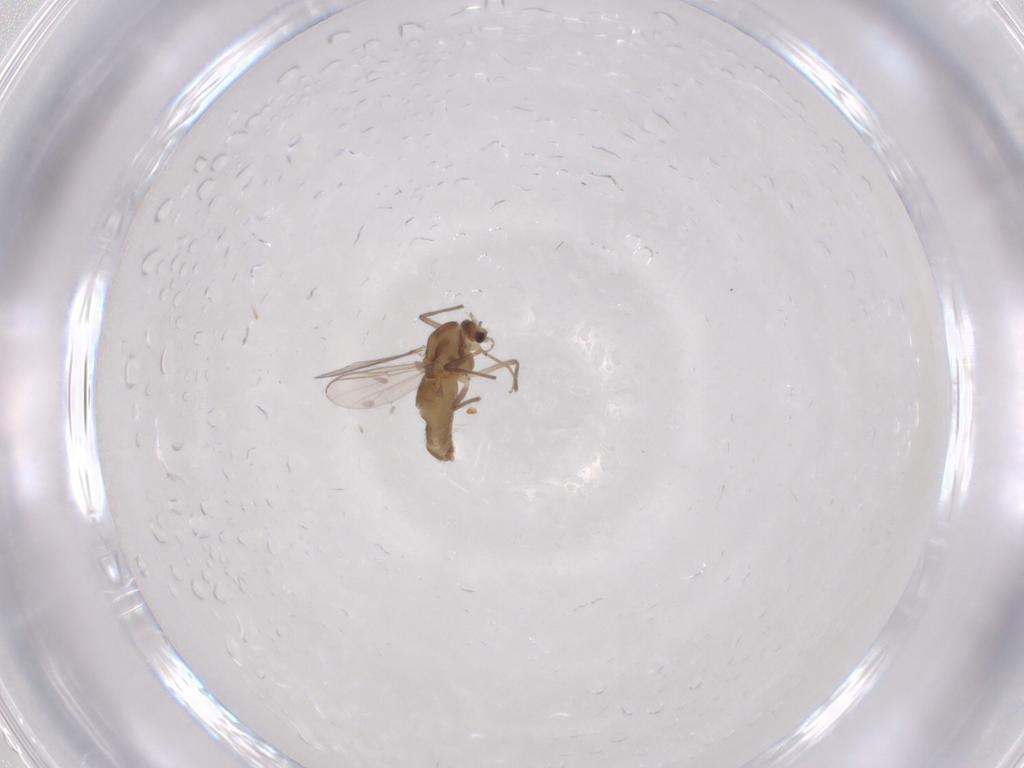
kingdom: Animalia
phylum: Arthropoda
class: Insecta
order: Diptera
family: Chironomidae
